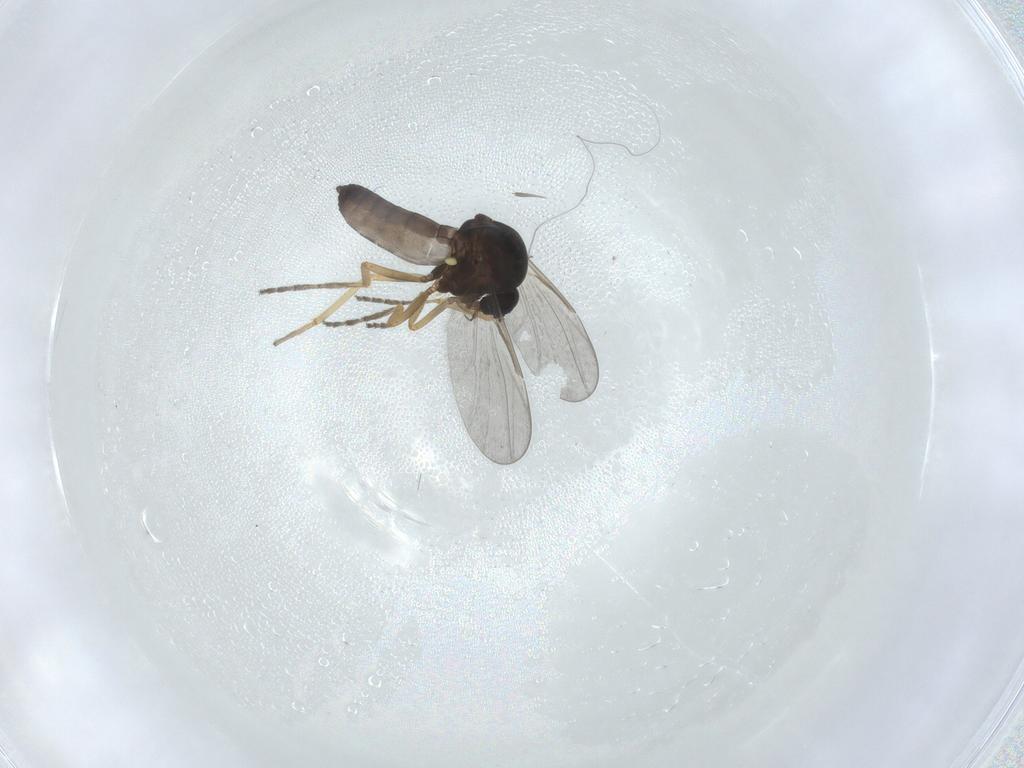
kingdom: Animalia
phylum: Arthropoda
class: Insecta
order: Diptera
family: Ceratopogonidae
